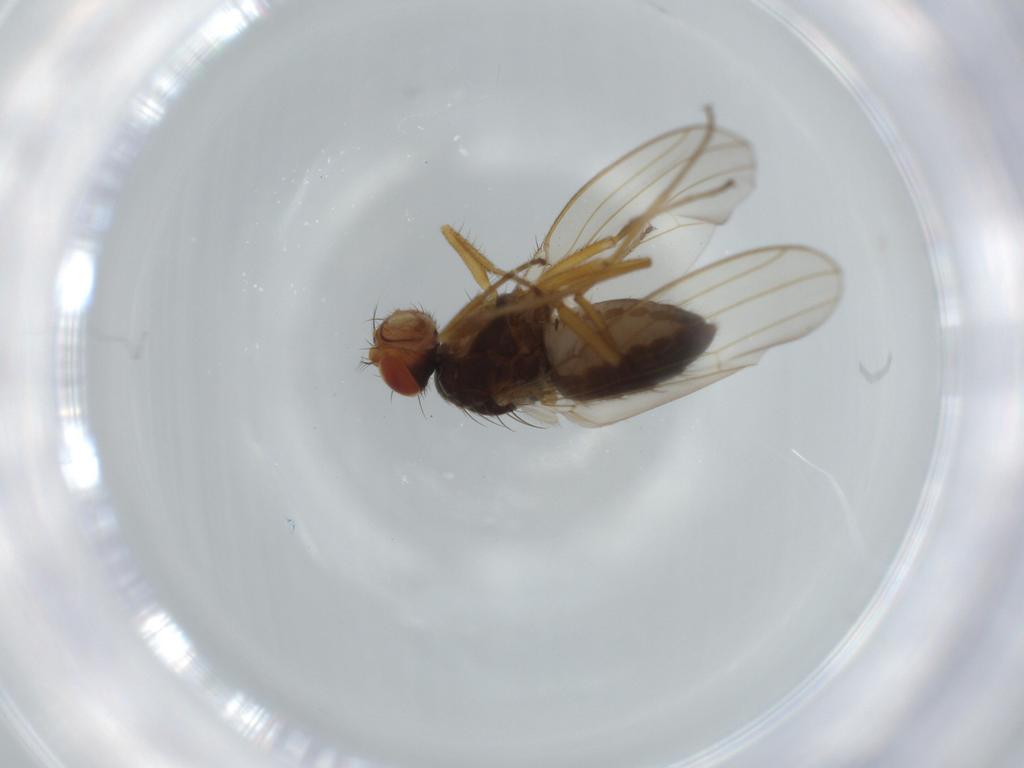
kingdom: Animalia
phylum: Arthropoda
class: Insecta
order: Diptera
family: Drosophilidae
